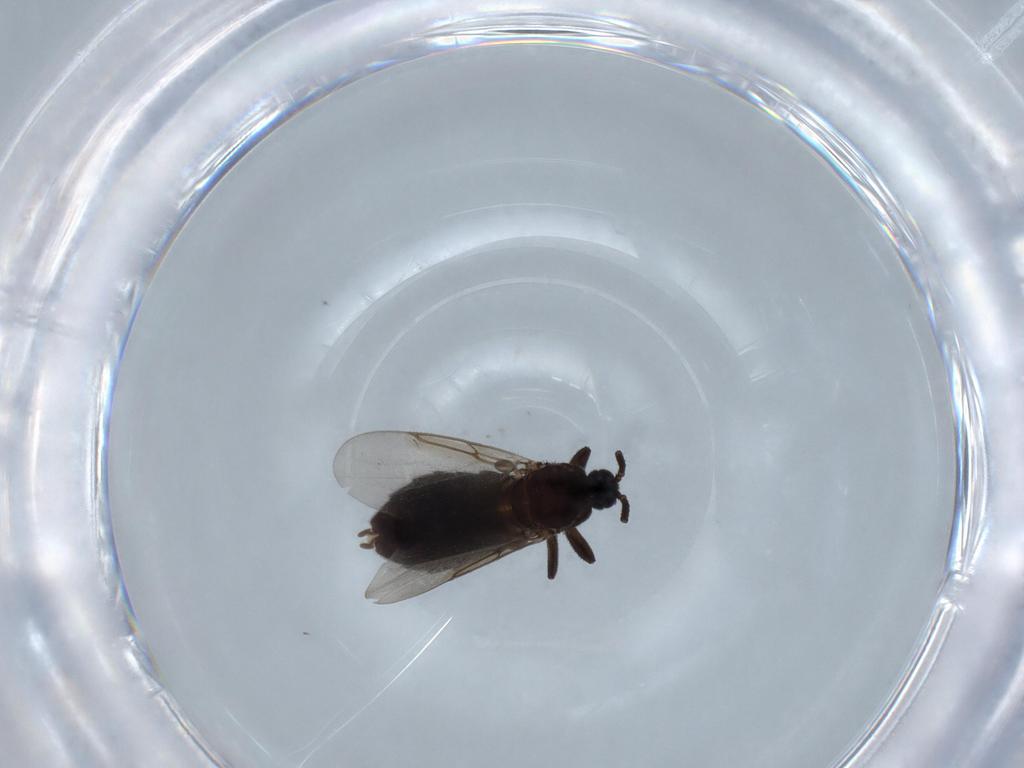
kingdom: Animalia
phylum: Arthropoda
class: Insecta
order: Diptera
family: Scatopsidae
